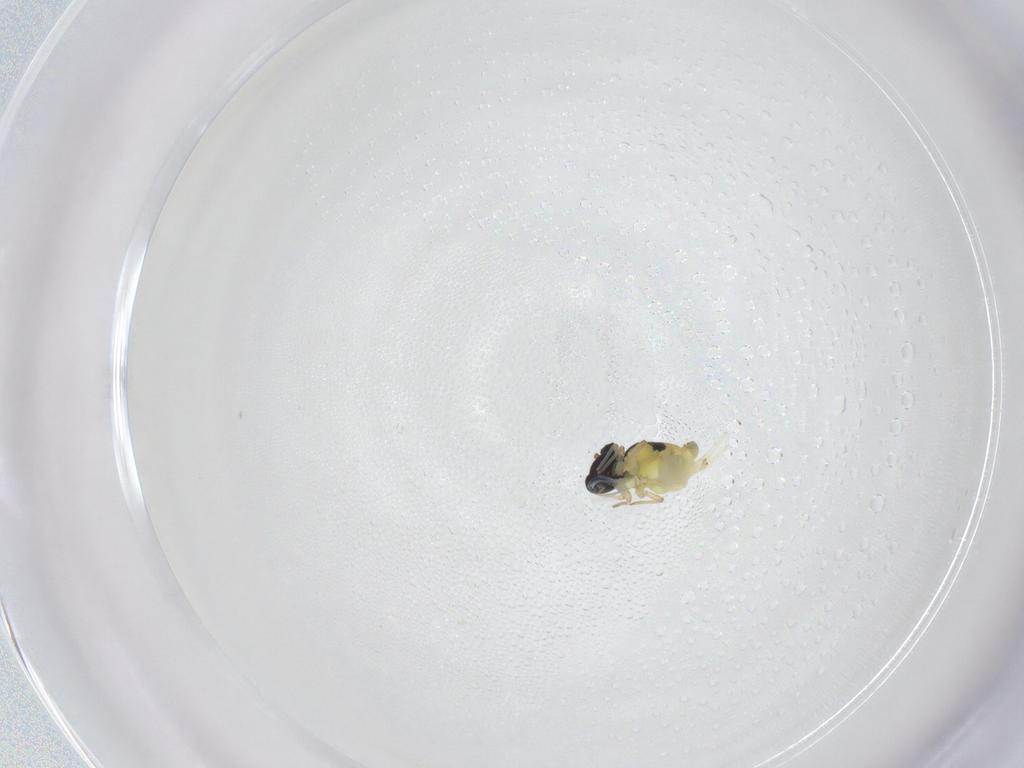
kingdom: Animalia
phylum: Arthropoda
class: Collembola
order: Symphypleona
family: Bourletiellidae
